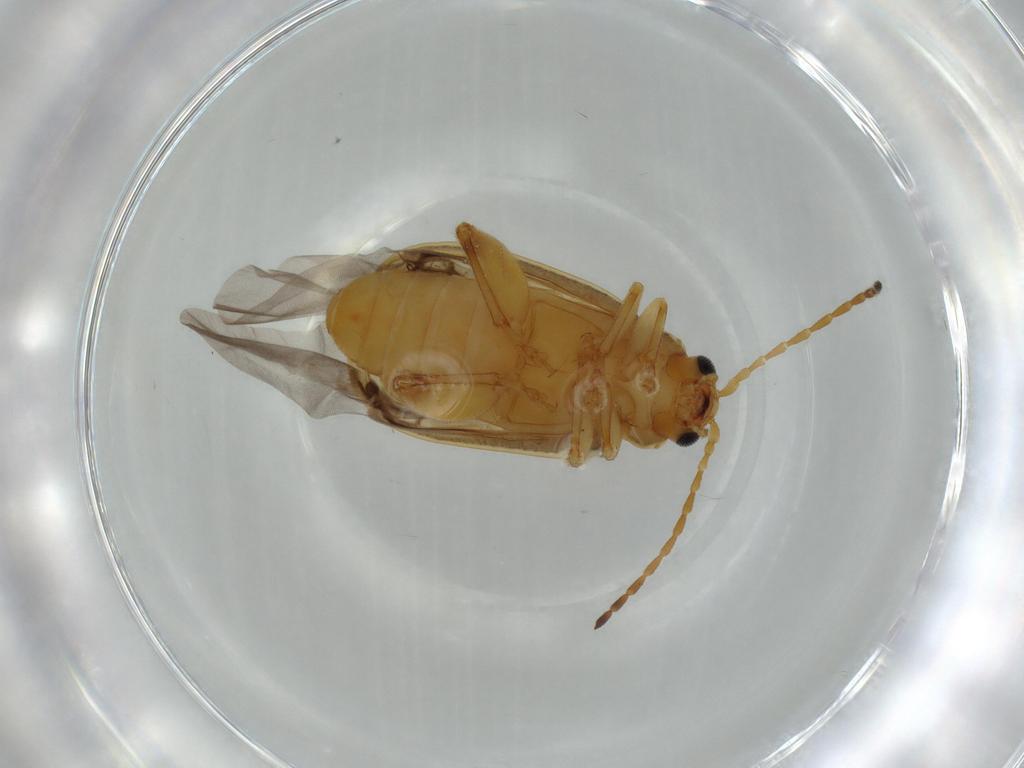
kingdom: Animalia
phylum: Arthropoda
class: Insecta
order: Coleoptera
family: Chrysomelidae
